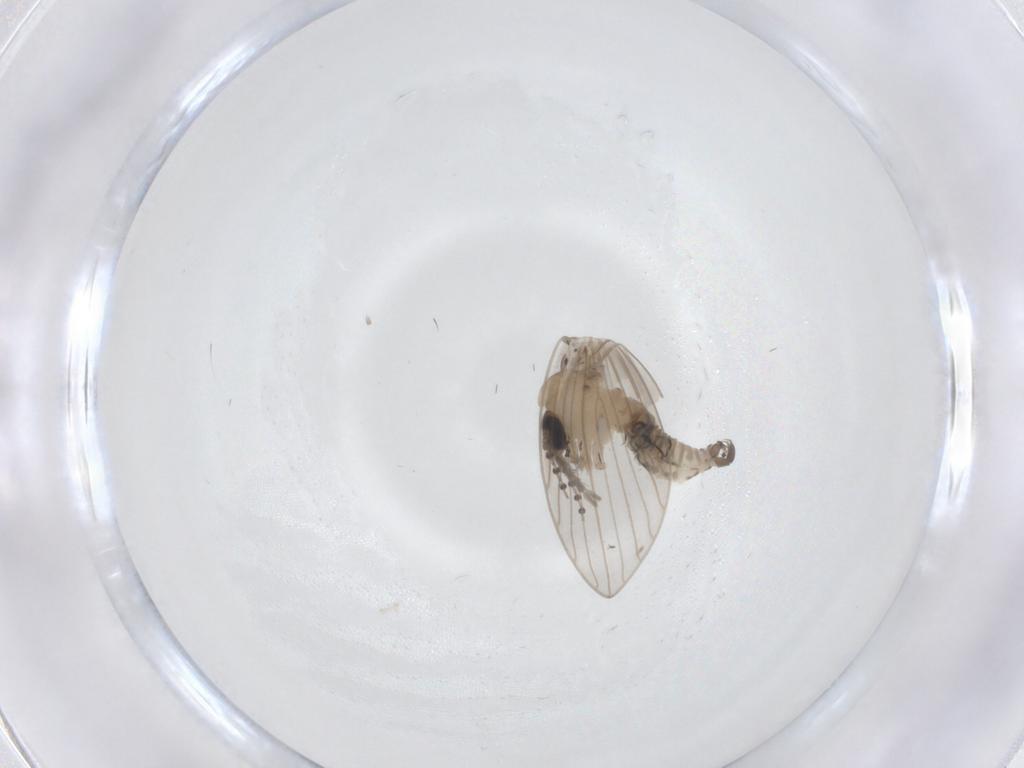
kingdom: Animalia
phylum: Arthropoda
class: Insecta
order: Diptera
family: Psychodidae
